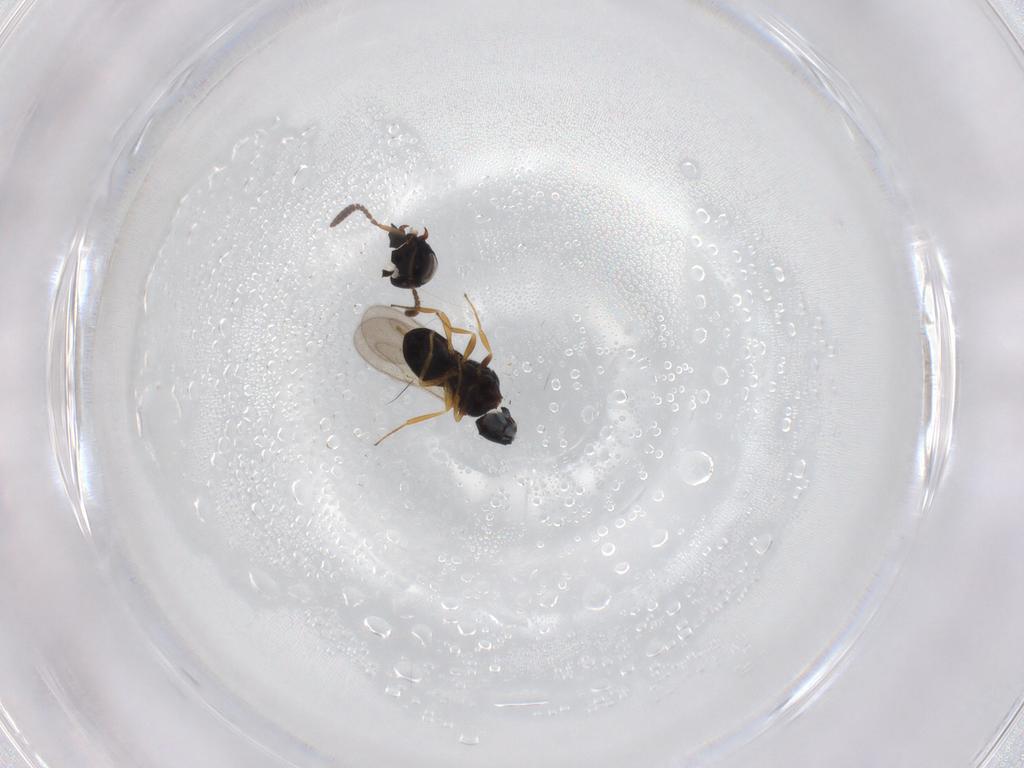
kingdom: Animalia
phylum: Arthropoda
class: Insecta
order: Hymenoptera
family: Scelionidae
